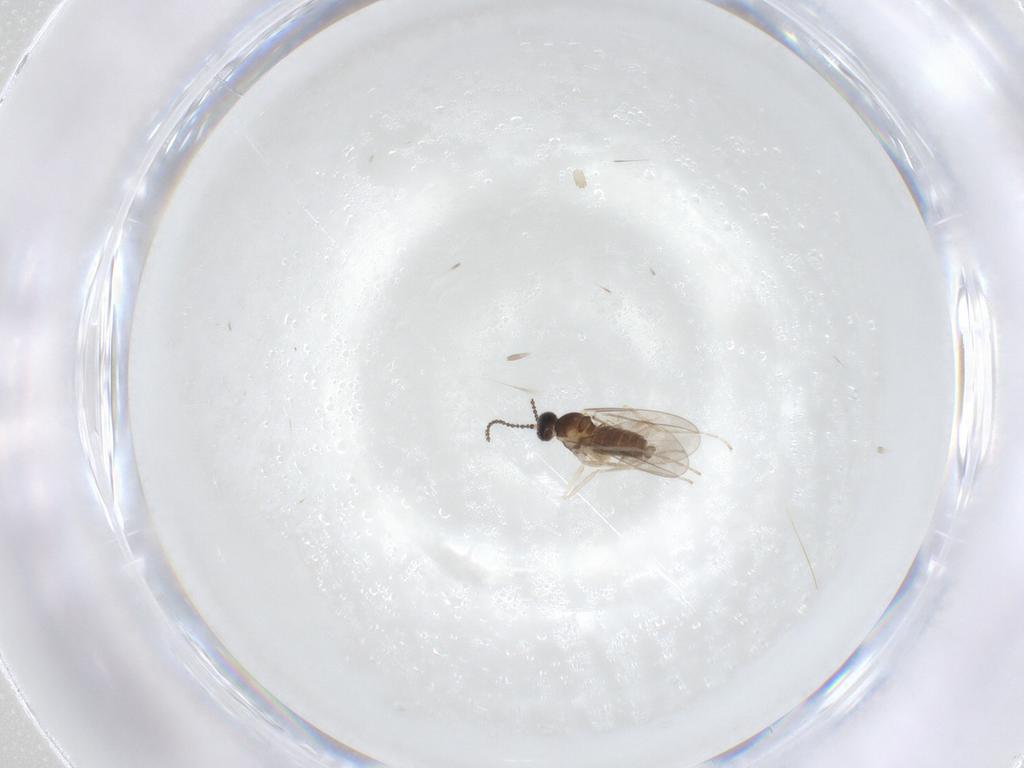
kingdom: Animalia
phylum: Arthropoda
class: Insecta
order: Diptera
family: Cecidomyiidae
